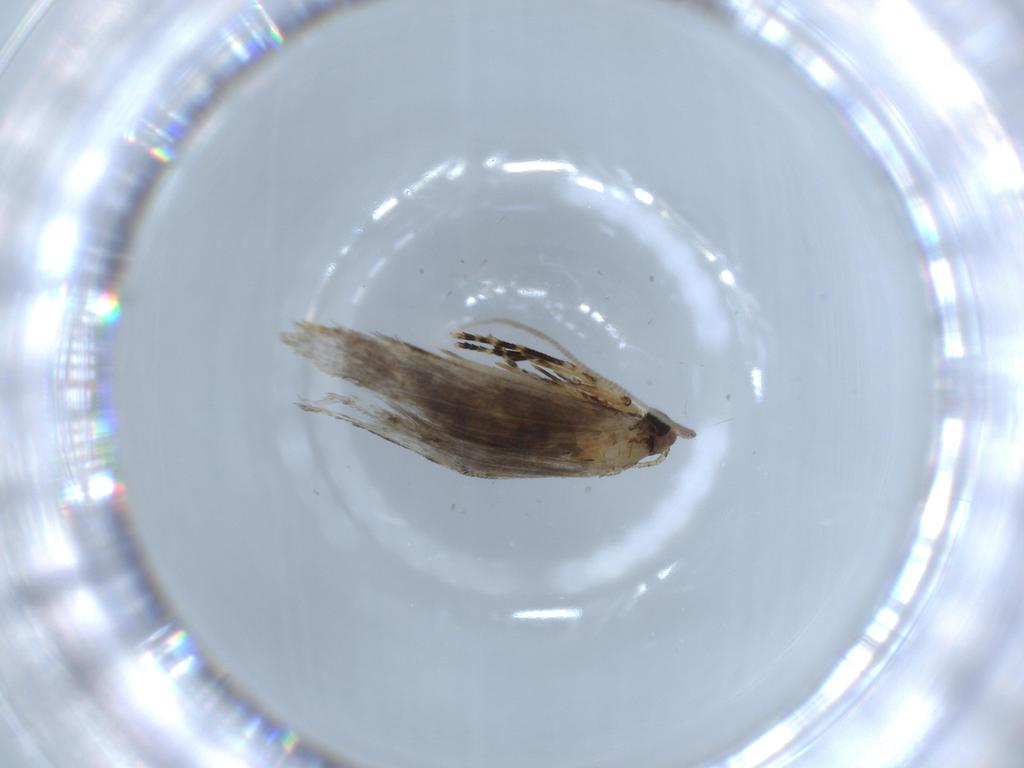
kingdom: Animalia
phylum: Arthropoda
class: Insecta
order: Lepidoptera
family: Tineidae
